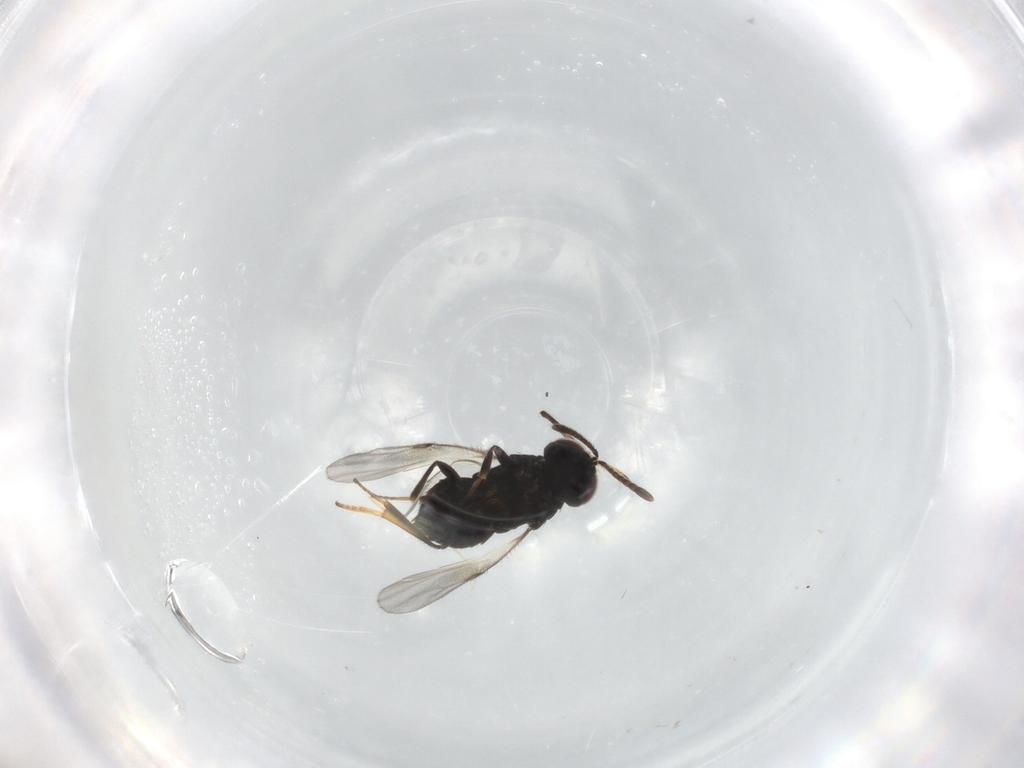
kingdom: Animalia
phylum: Arthropoda
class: Insecta
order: Hymenoptera
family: Encyrtidae
